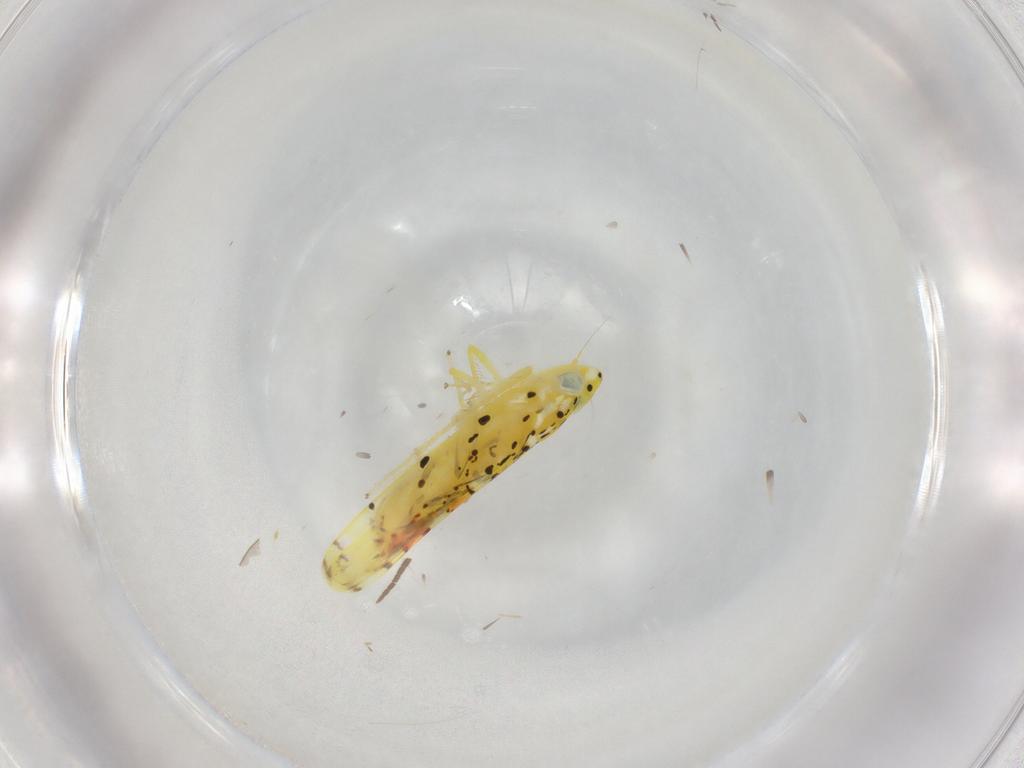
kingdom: Animalia
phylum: Arthropoda
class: Insecta
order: Hemiptera
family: Cicadellidae
